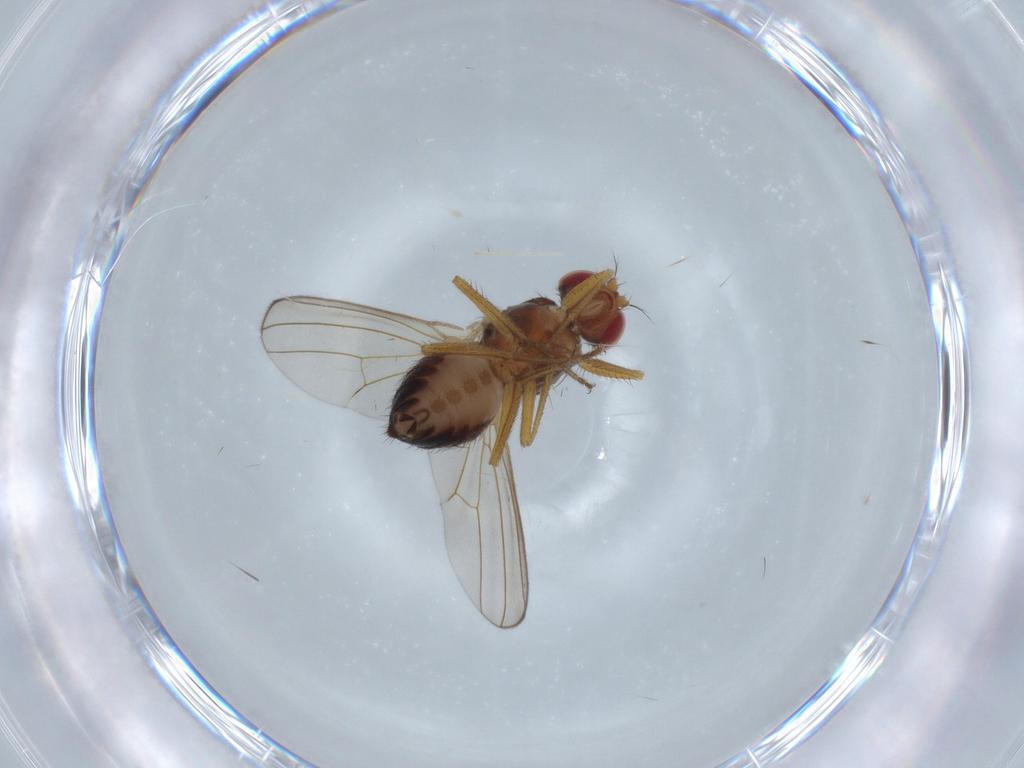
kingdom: Animalia
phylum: Arthropoda
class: Insecta
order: Diptera
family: Drosophilidae
